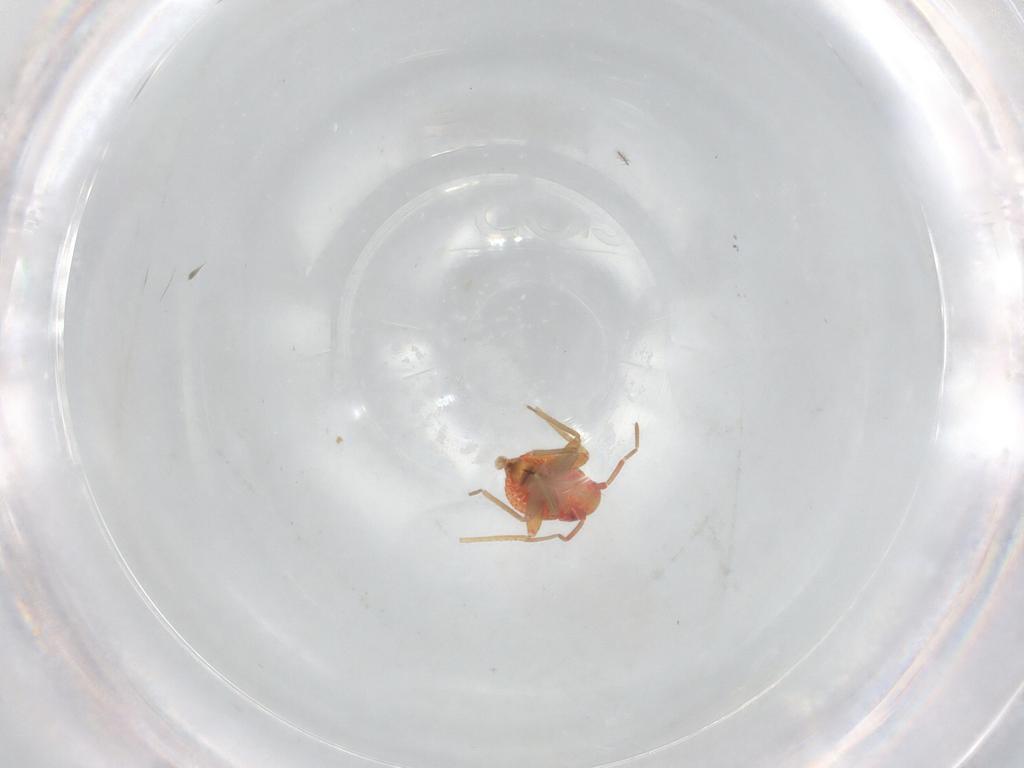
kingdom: Animalia
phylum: Arthropoda
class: Insecta
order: Hemiptera
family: Miridae
